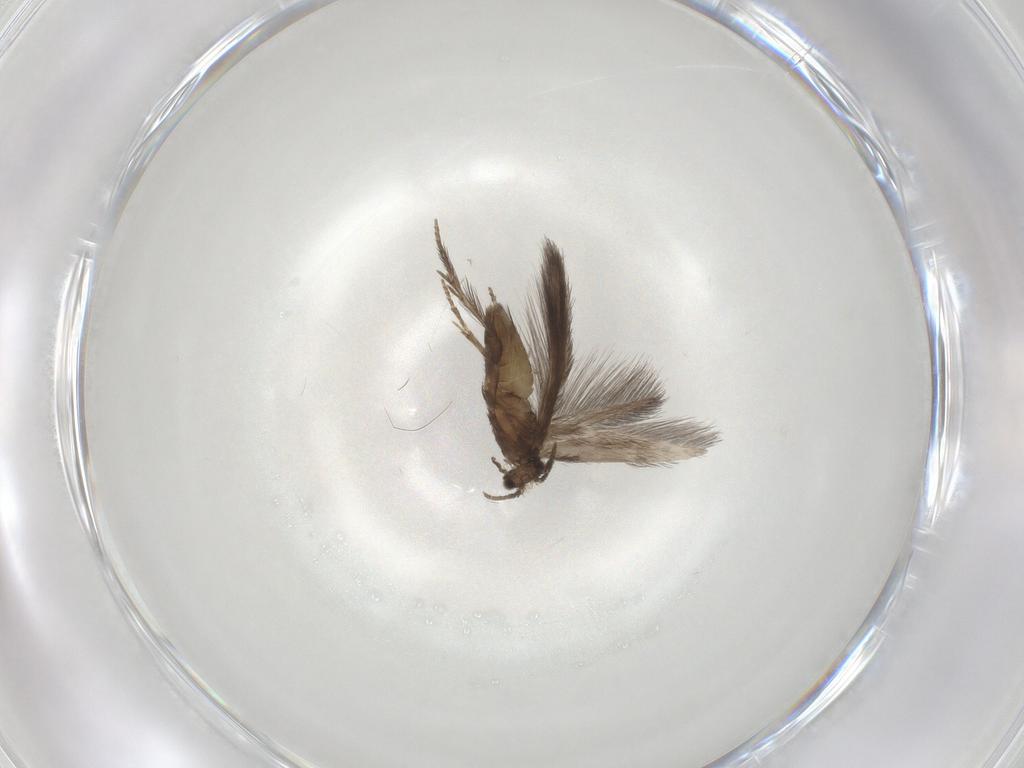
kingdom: Animalia
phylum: Arthropoda
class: Insecta
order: Trichoptera
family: Hydroptilidae
